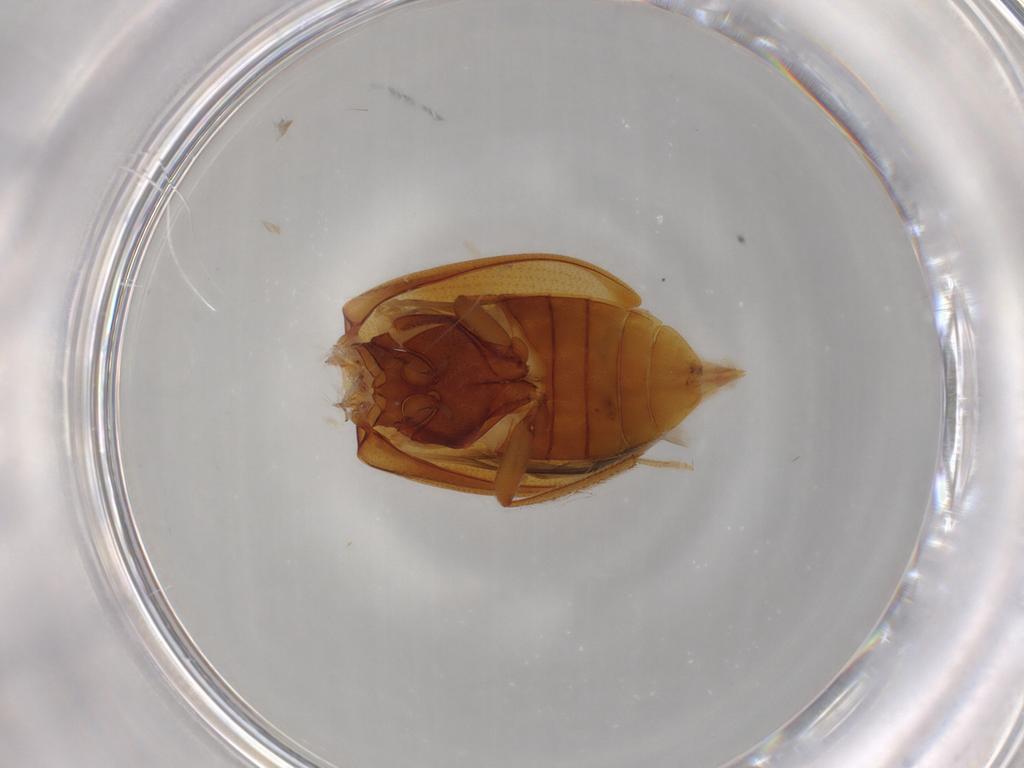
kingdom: Animalia
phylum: Arthropoda
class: Insecta
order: Coleoptera
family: Ptilodactylidae
